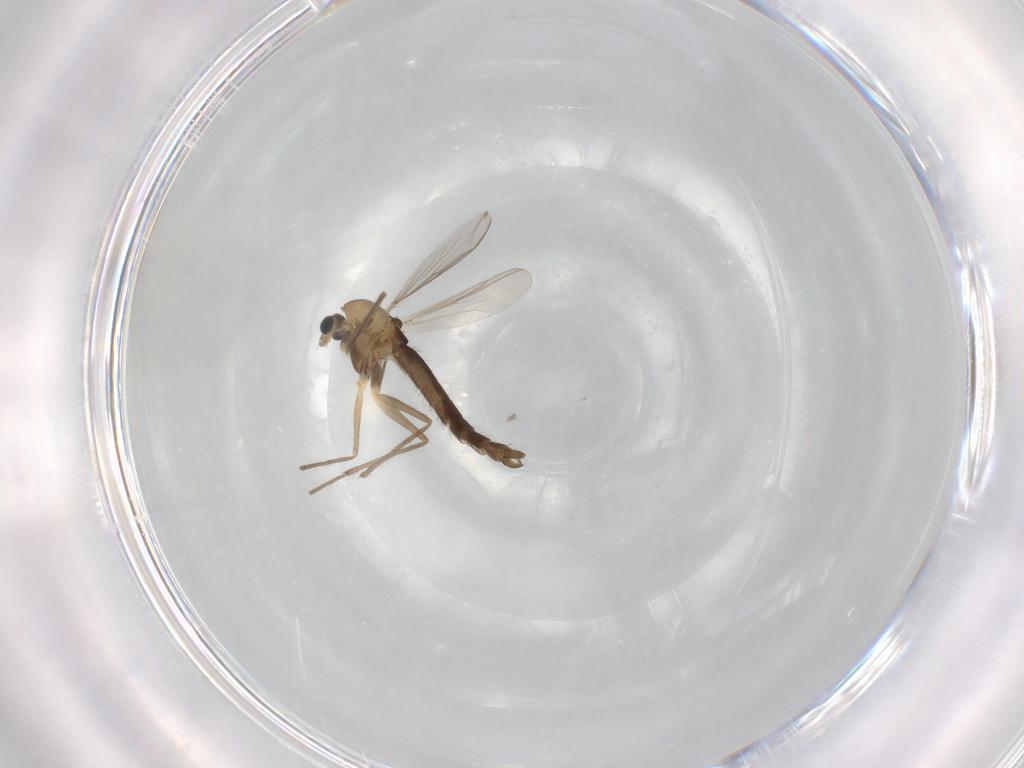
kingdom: Animalia
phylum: Arthropoda
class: Insecta
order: Diptera
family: Chironomidae
